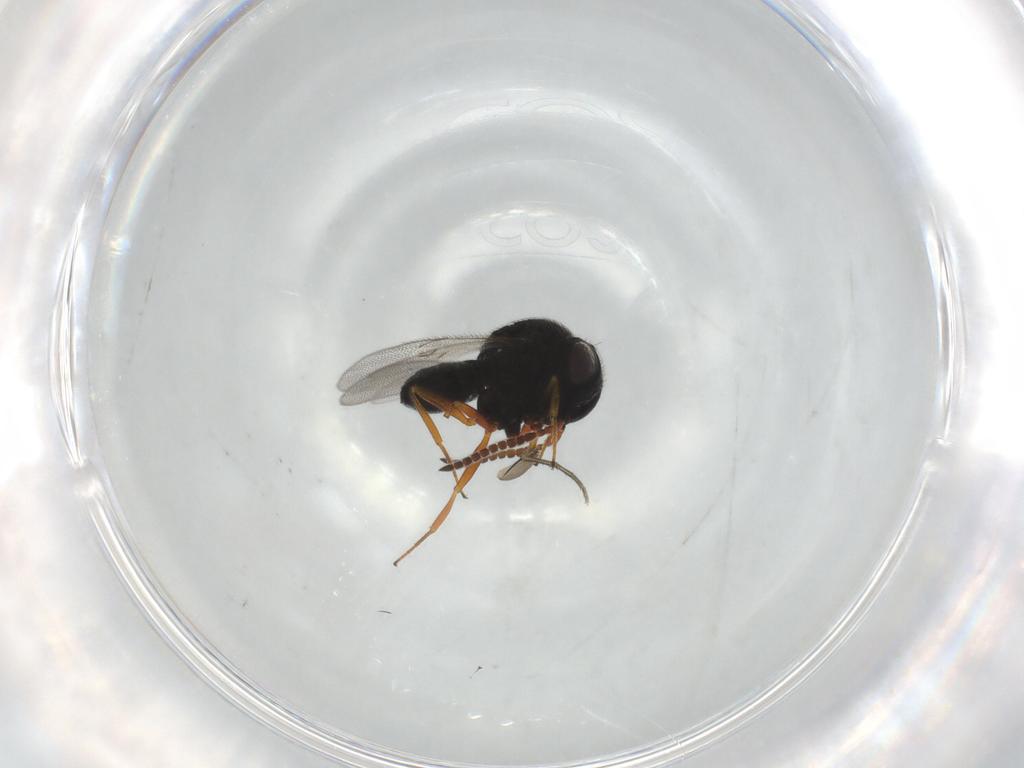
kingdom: Animalia
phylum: Arthropoda
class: Insecta
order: Hymenoptera
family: Scelionidae
